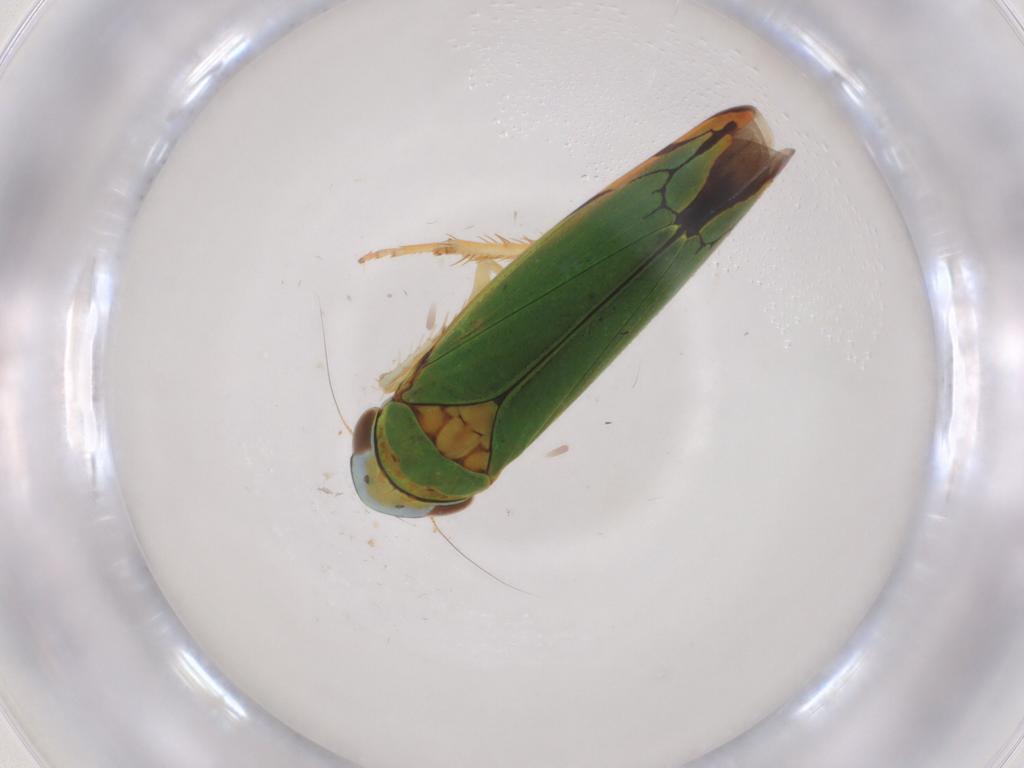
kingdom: Animalia
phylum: Arthropoda
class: Insecta
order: Hemiptera
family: Cicadellidae
